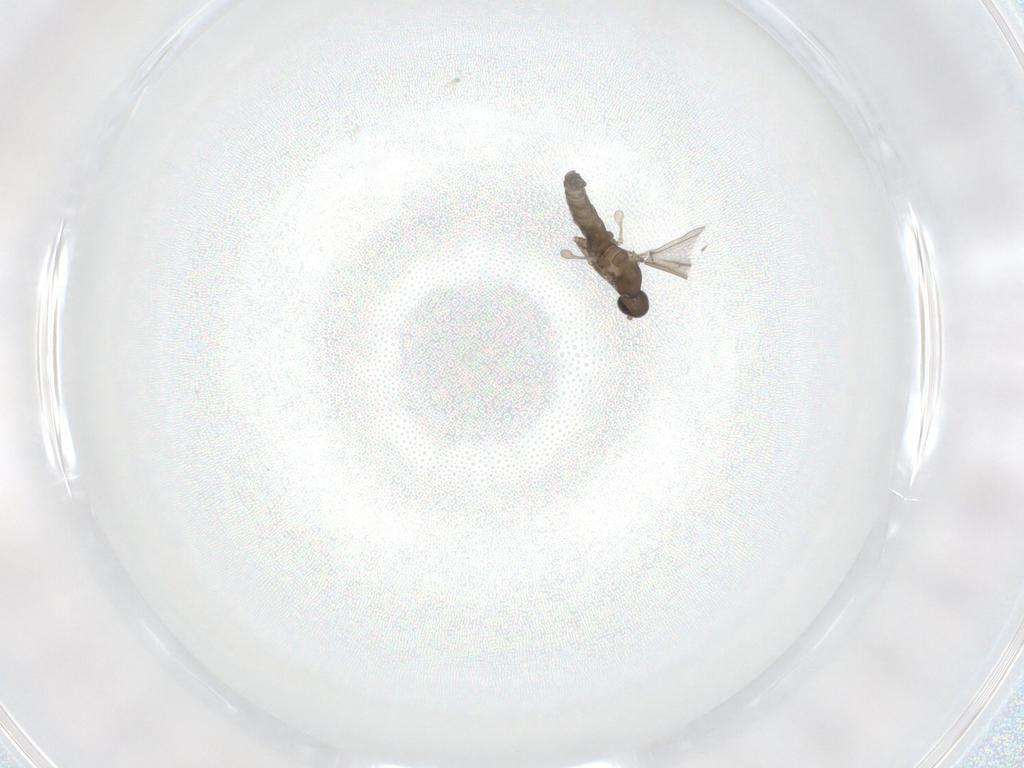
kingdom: Animalia
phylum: Arthropoda
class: Insecta
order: Diptera
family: Cecidomyiidae
